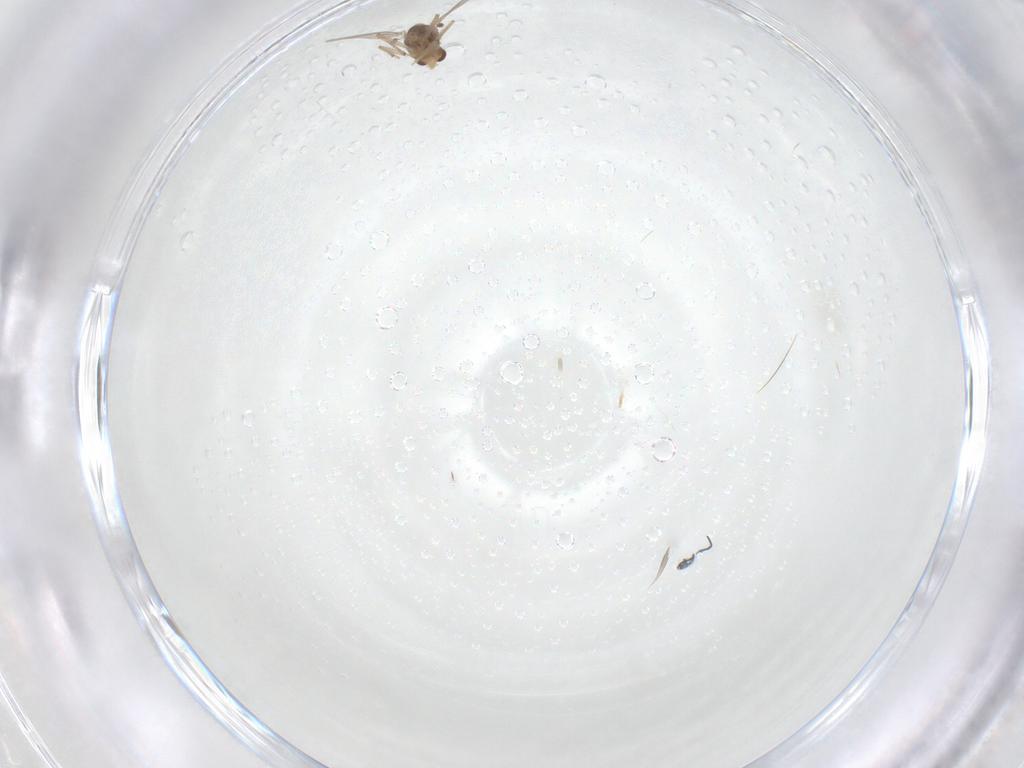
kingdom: Animalia
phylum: Arthropoda
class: Insecta
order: Diptera
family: Chironomidae
